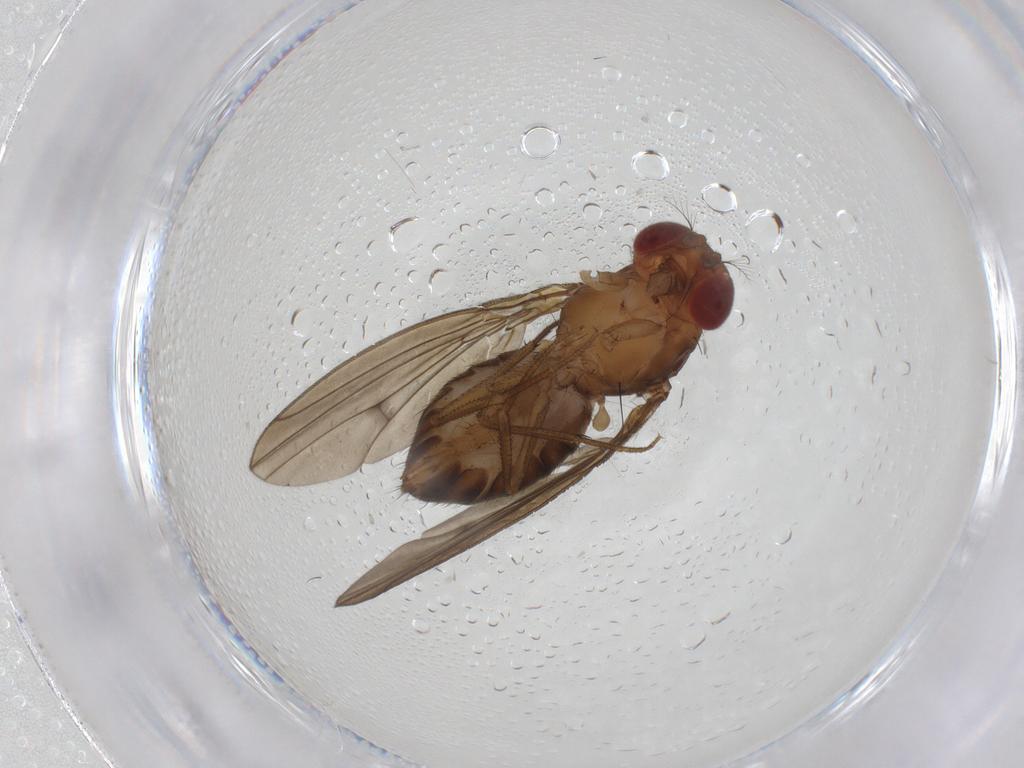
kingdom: Animalia
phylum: Arthropoda
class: Insecta
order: Diptera
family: Drosophilidae
